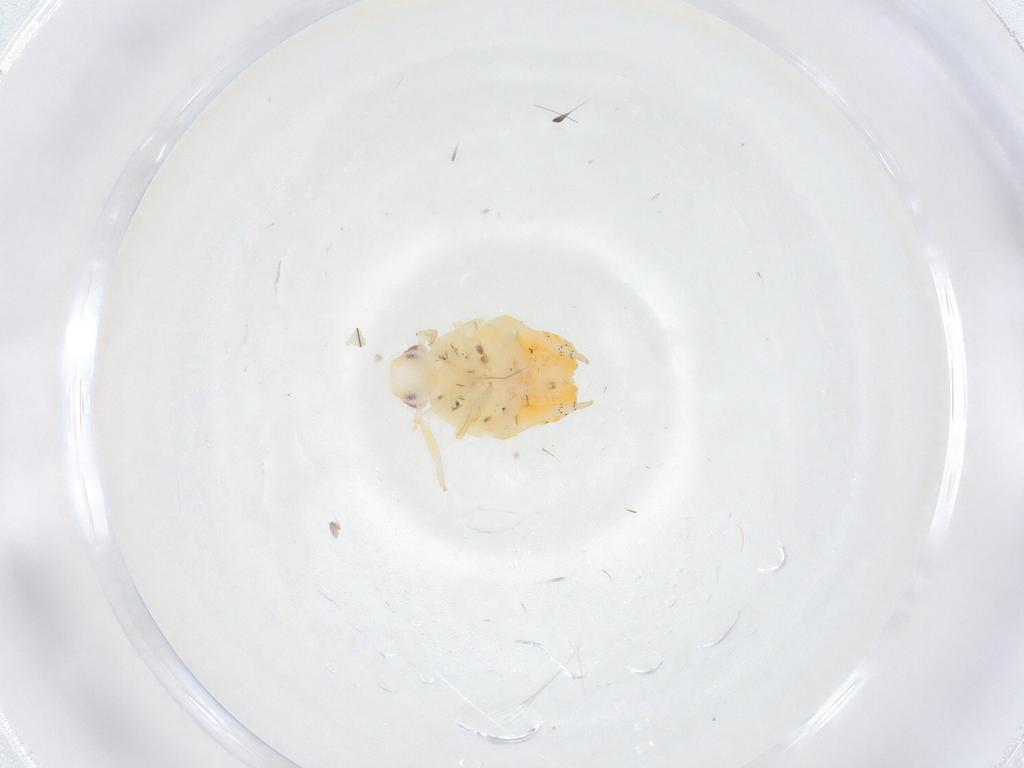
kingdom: Animalia
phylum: Arthropoda
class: Insecta
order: Hemiptera
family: Fulgoroidea_incertae_sedis
